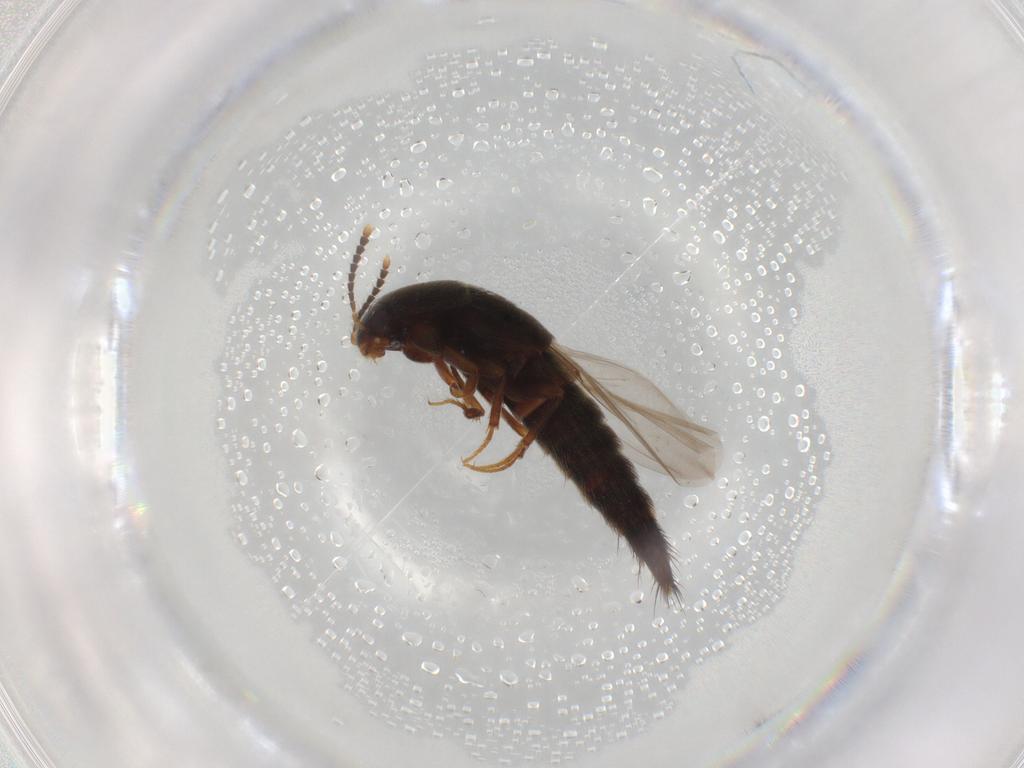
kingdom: Animalia
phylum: Arthropoda
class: Insecta
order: Coleoptera
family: Staphylinidae
